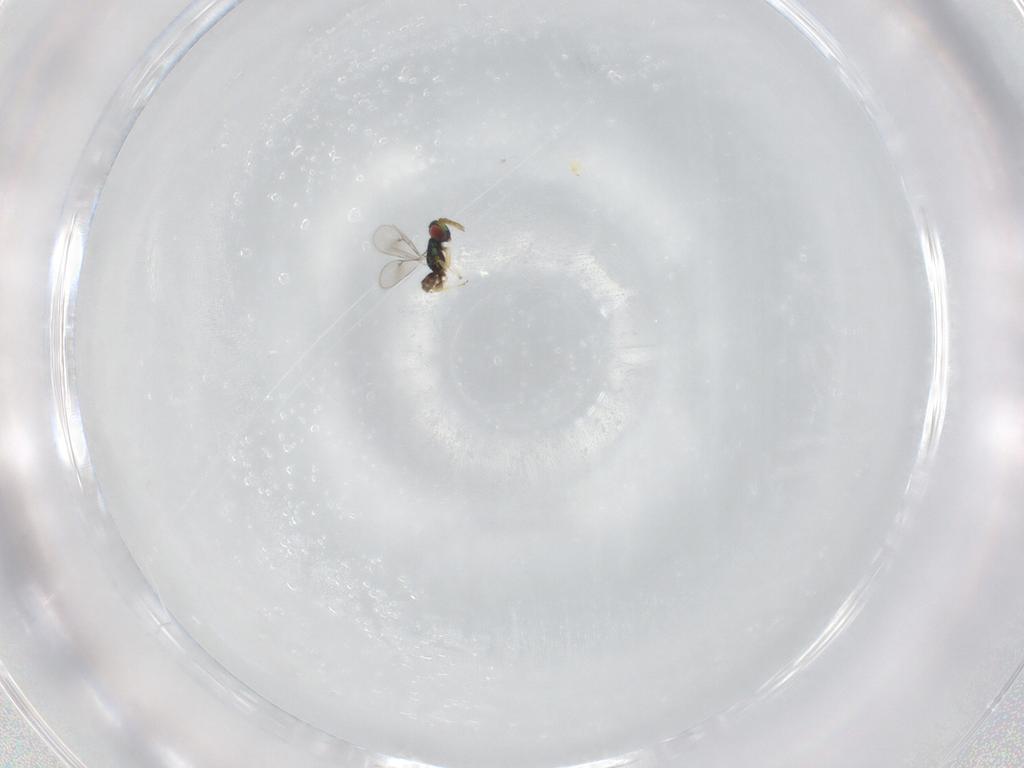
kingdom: Animalia
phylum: Arthropoda
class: Insecta
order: Hymenoptera
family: Eulophidae
